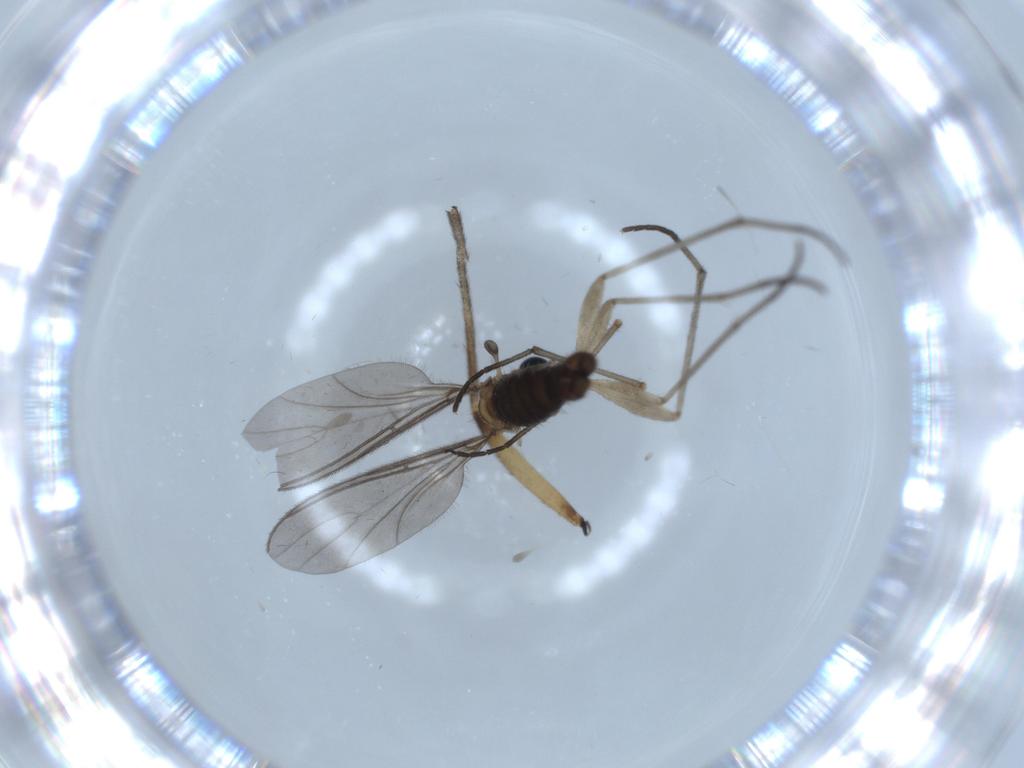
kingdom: Animalia
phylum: Arthropoda
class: Insecta
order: Diptera
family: Sciaridae
